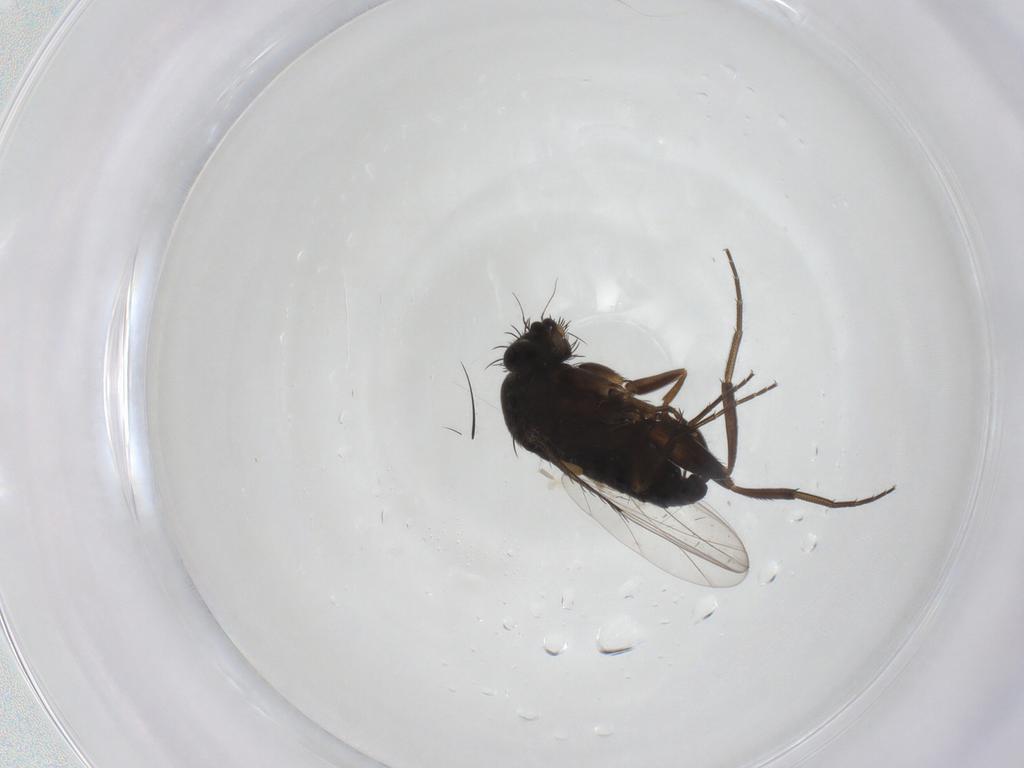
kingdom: Animalia
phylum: Arthropoda
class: Insecta
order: Diptera
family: Phoridae
